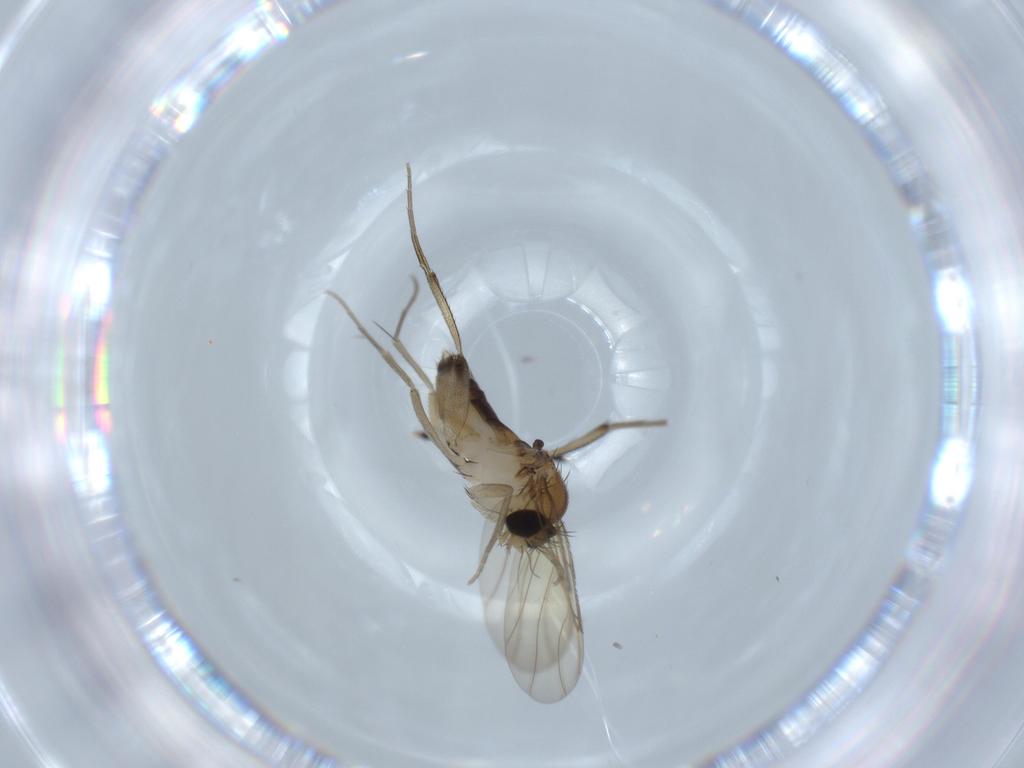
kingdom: Animalia
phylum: Arthropoda
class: Insecta
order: Diptera
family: Phoridae
